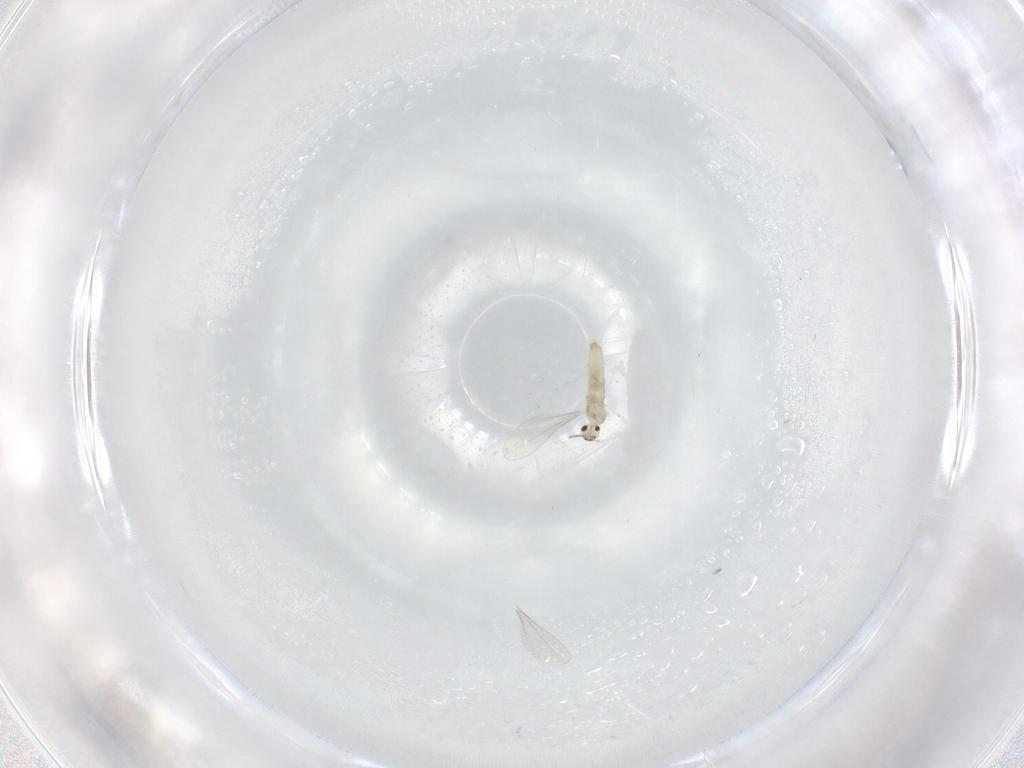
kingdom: Animalia
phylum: Arthropoda
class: Insecta
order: Diptera
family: Cecidomyiidae
